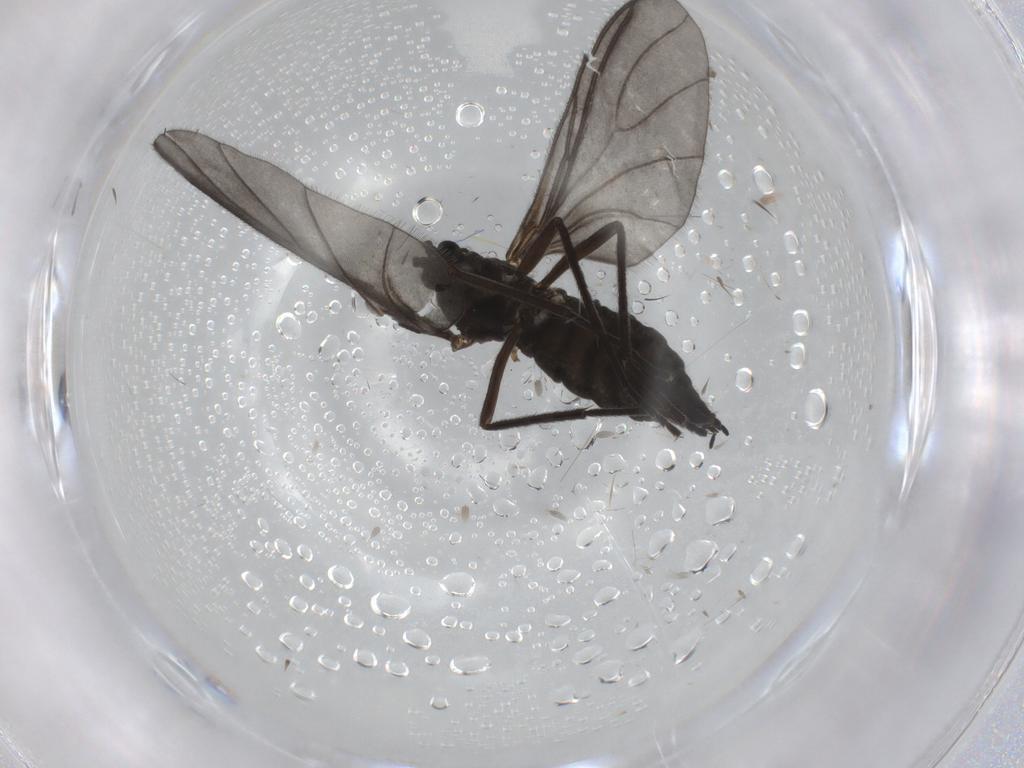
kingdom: Animalia
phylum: Arthropoda
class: Insecta
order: Diptera
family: Sciaridae
